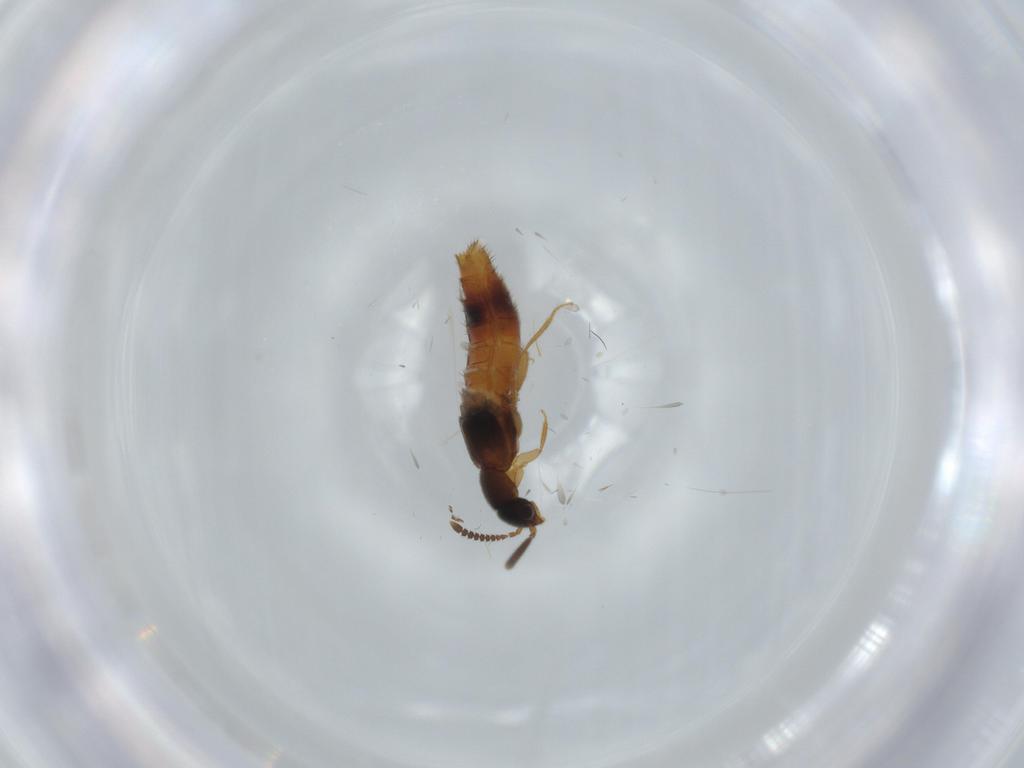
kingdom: Animalia
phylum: Arthropoda
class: Insecta
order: Coleoptera
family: Staphylinidae
